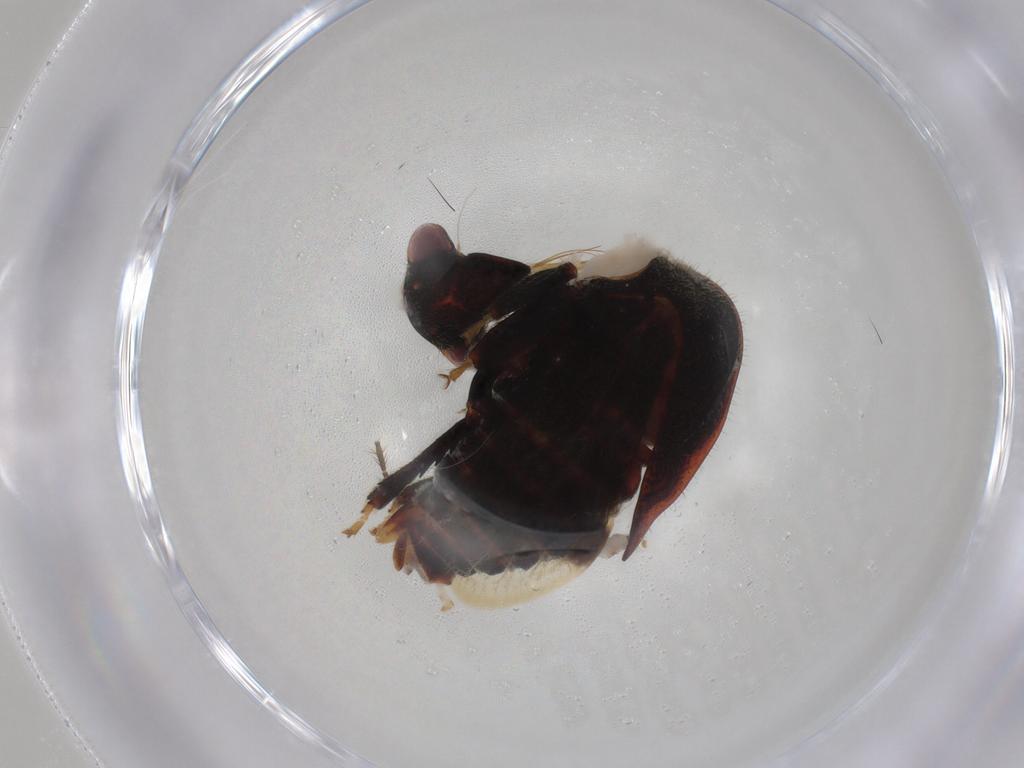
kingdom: Animalia
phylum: Arthropoda
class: Insecta
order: Hemiptera
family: Membracidae
